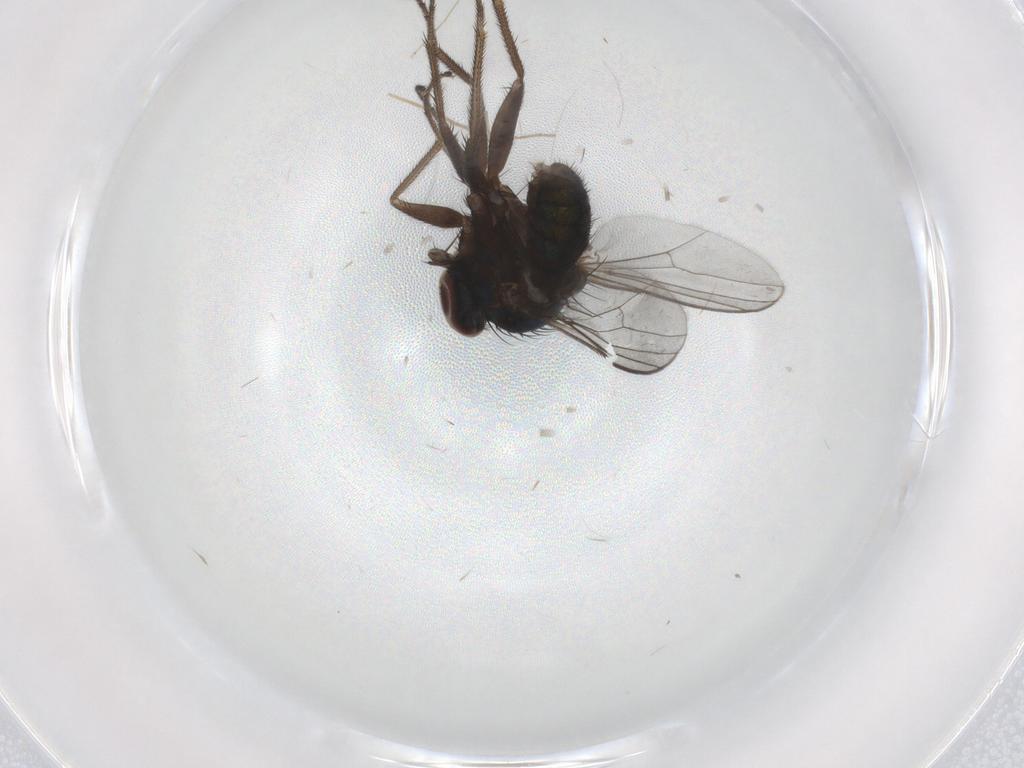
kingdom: Animalia
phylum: Arthropoda
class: Insecta
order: Diptera
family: Dolichopodidae
